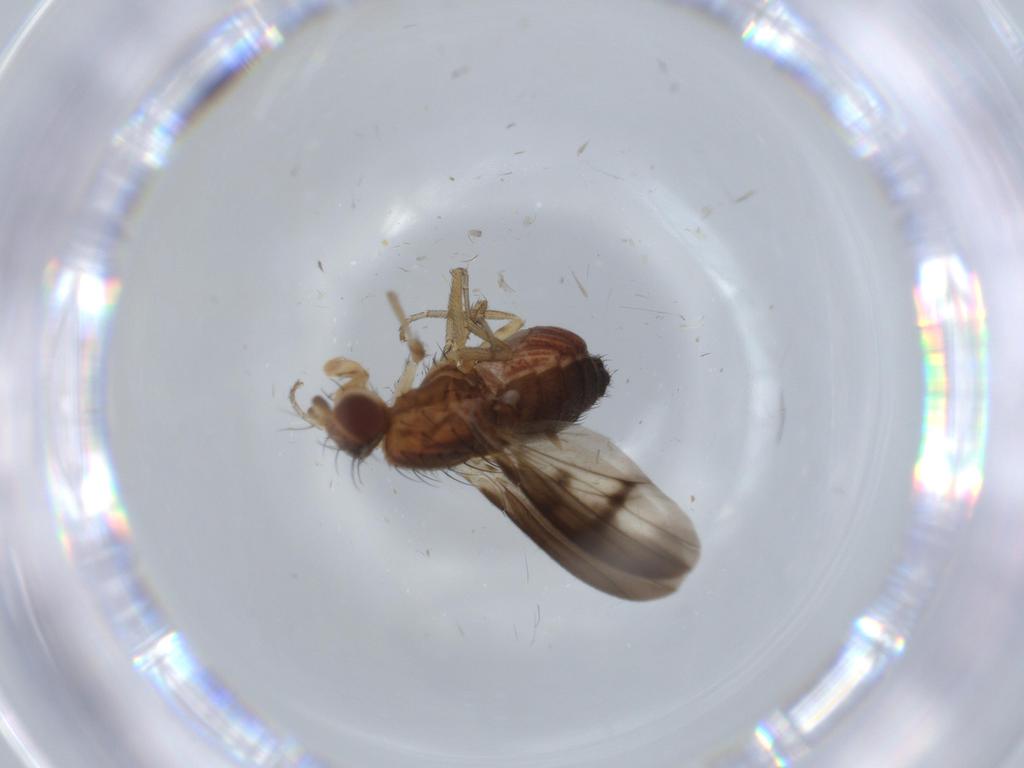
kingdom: Animalia
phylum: Arthropoda
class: Insecta
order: Diptera
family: Heleomyzidae
